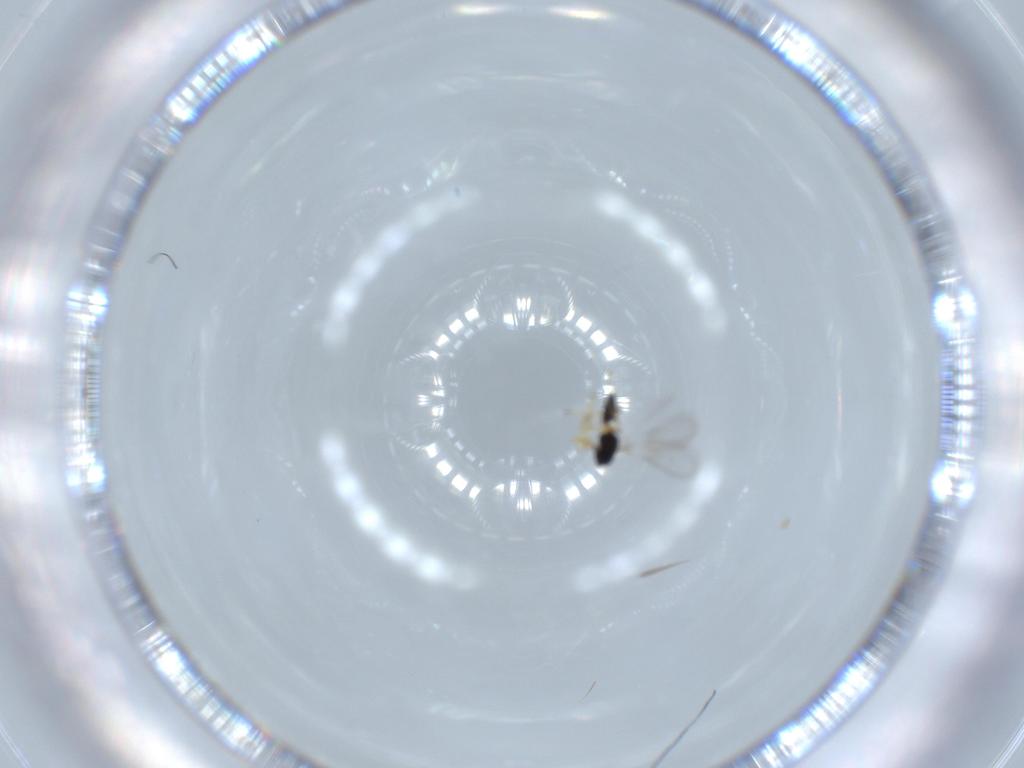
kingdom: Animalia
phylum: Arthropoda
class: Insecta
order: Hymenoptera
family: Mymaridae
